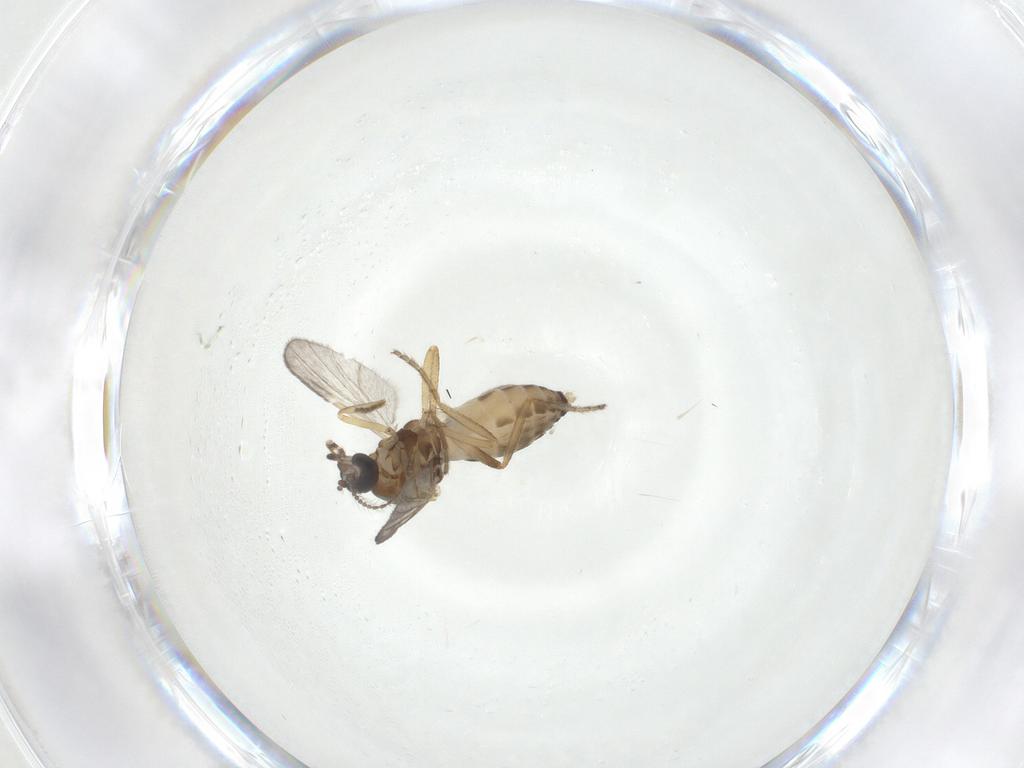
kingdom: Animalia
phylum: Arthropoda
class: Insecta
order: Diptera
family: Ceratopogonidae
